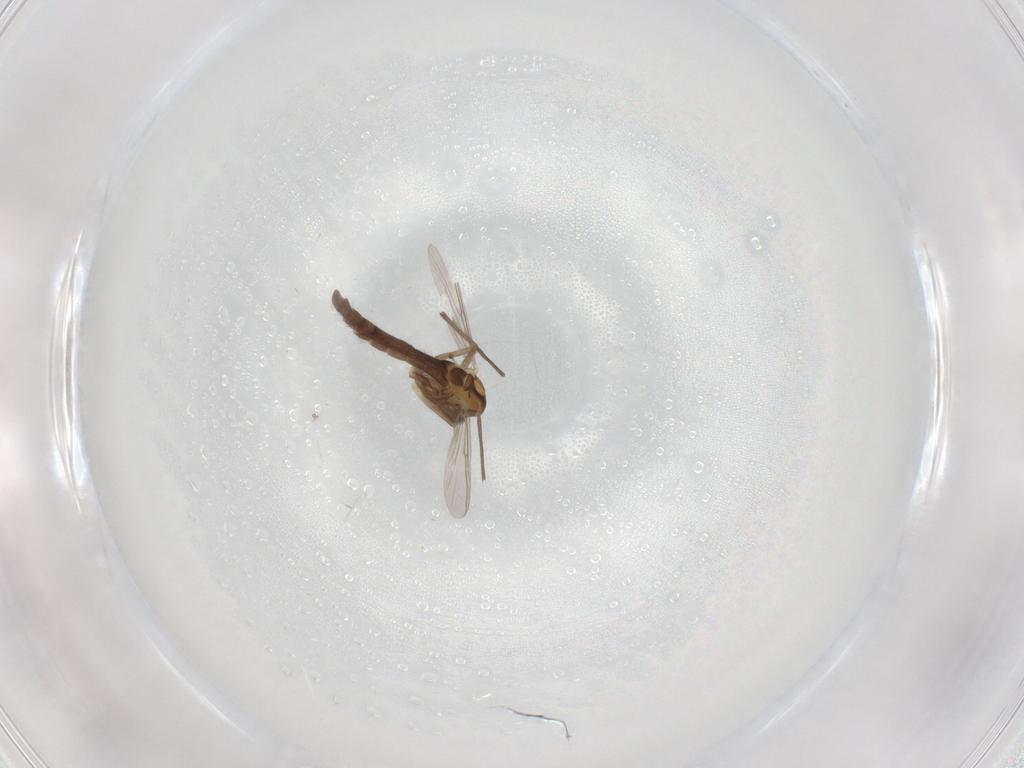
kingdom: Animalia
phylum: Arthropoda
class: Insecta
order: Diptera
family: Chironomidae
